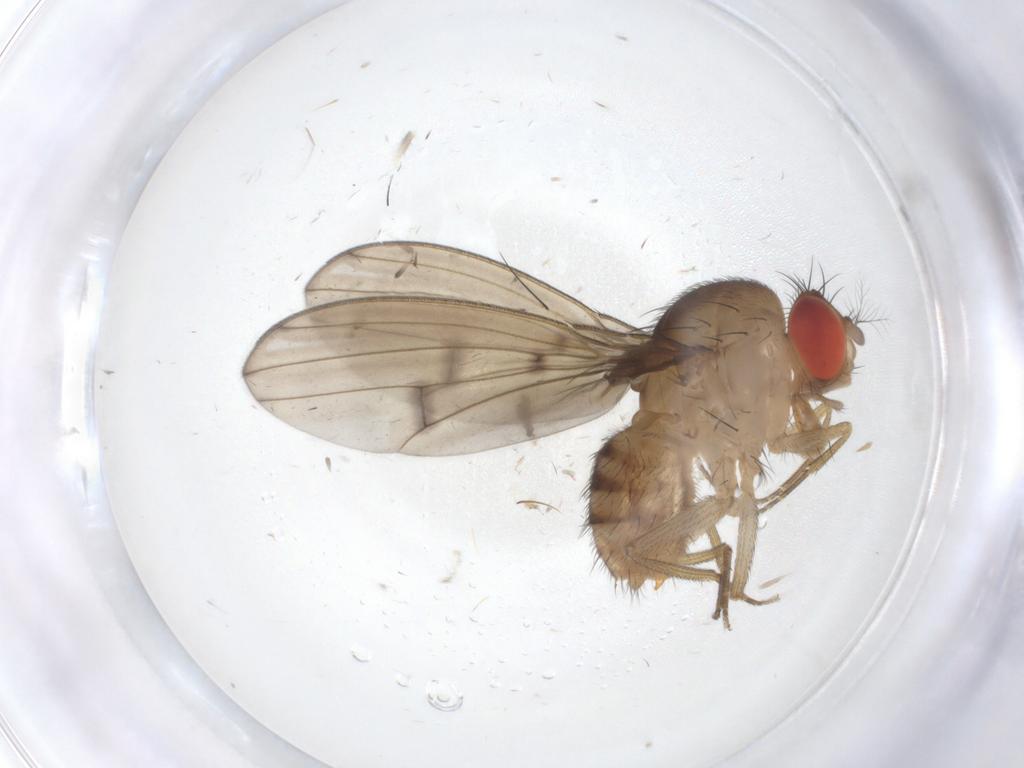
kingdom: Animalia
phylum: Arthropoda
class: Insecta
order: Diptera
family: Drosophilidae
